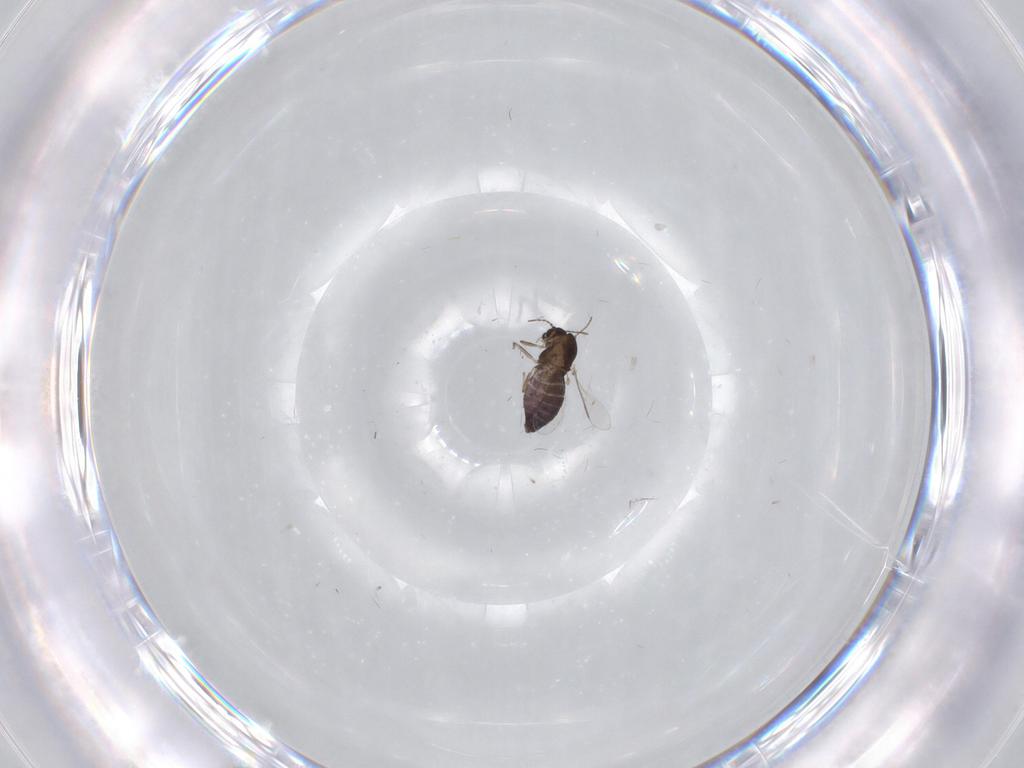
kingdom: Animalia
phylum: Arthropoda
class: Insecta
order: Diptera
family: Chironomidae
